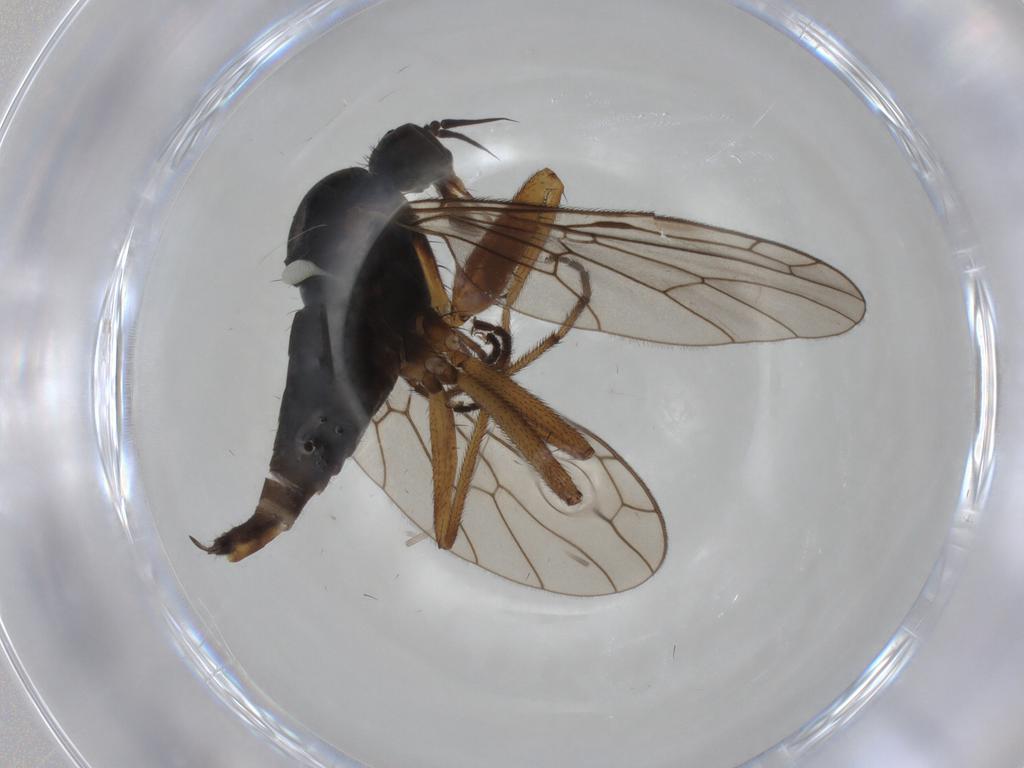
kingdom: Animalia
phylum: Arthropoda
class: Insecta
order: Diptera
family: Empididae
